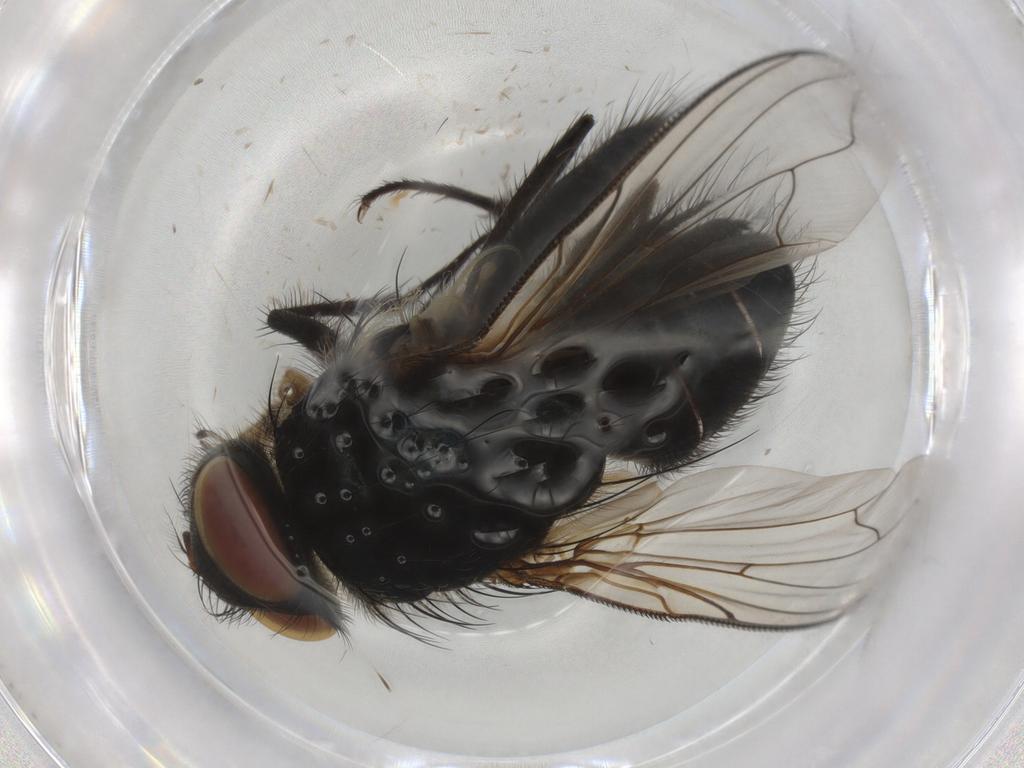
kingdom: Animalia
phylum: Arthropoda
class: Insecta
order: Diptera
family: Polleniidae
